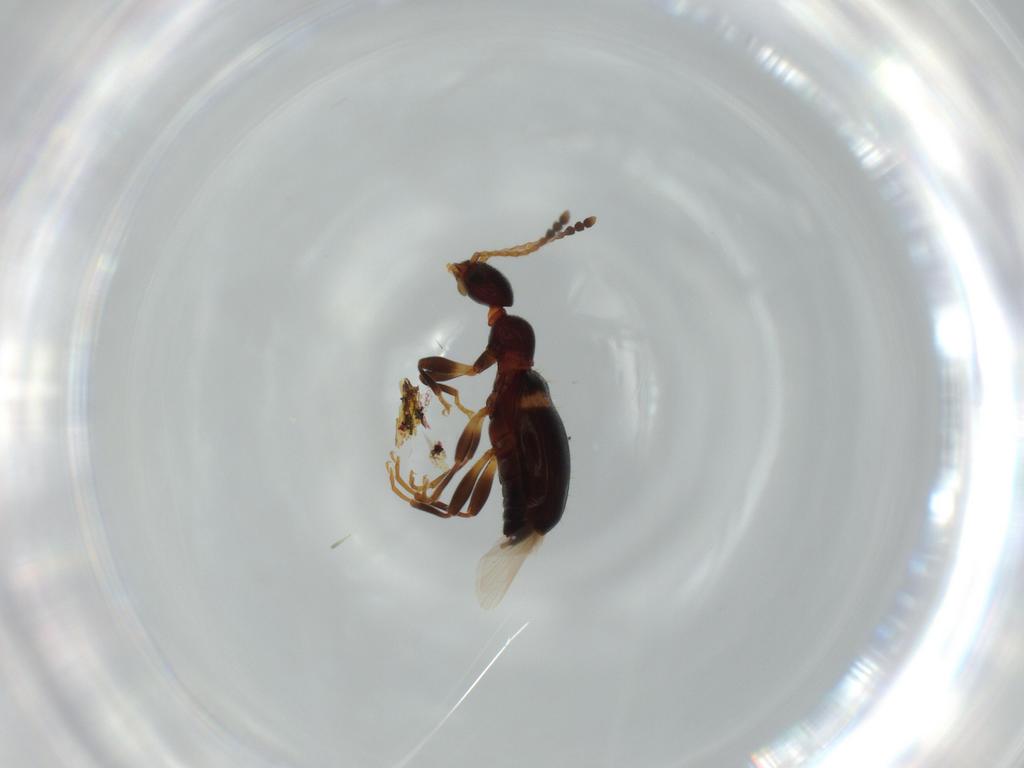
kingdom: Animalia
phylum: Arthropoda
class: Insecta
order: Coleoptera
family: Anthicidae
